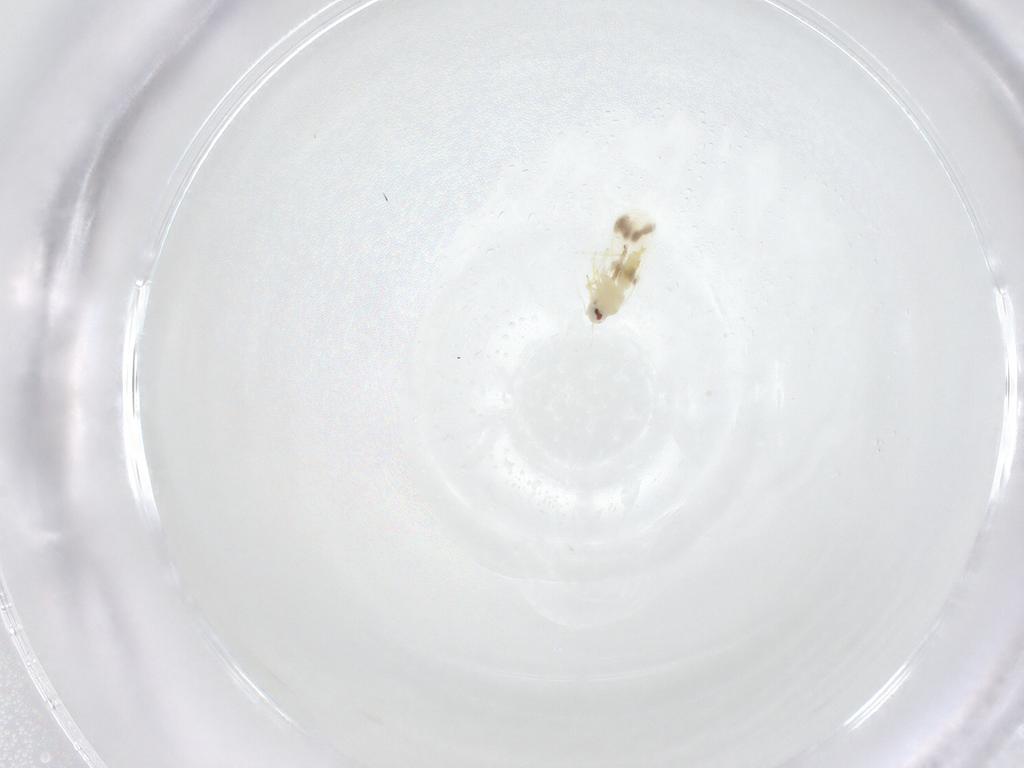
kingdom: Animalia
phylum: Arthropoda
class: Insecta
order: Hemiptera
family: Aleyrodidae
